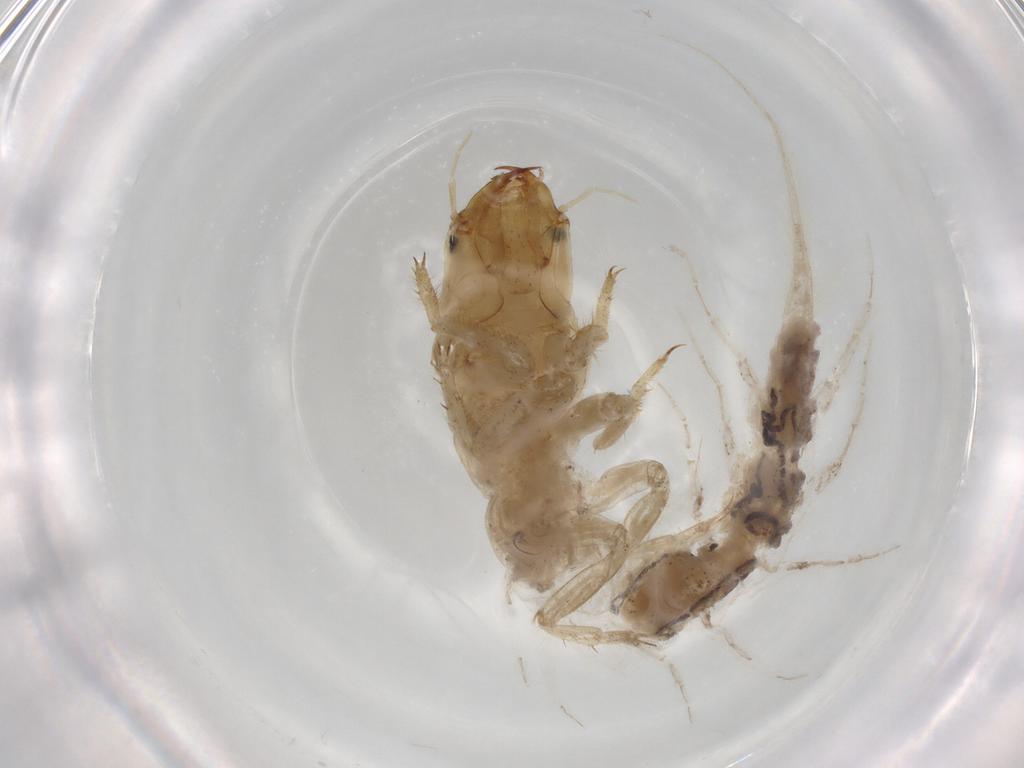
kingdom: Animalia
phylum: Arthropoda
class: Insecta
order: Megaloptera
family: Sialidae
